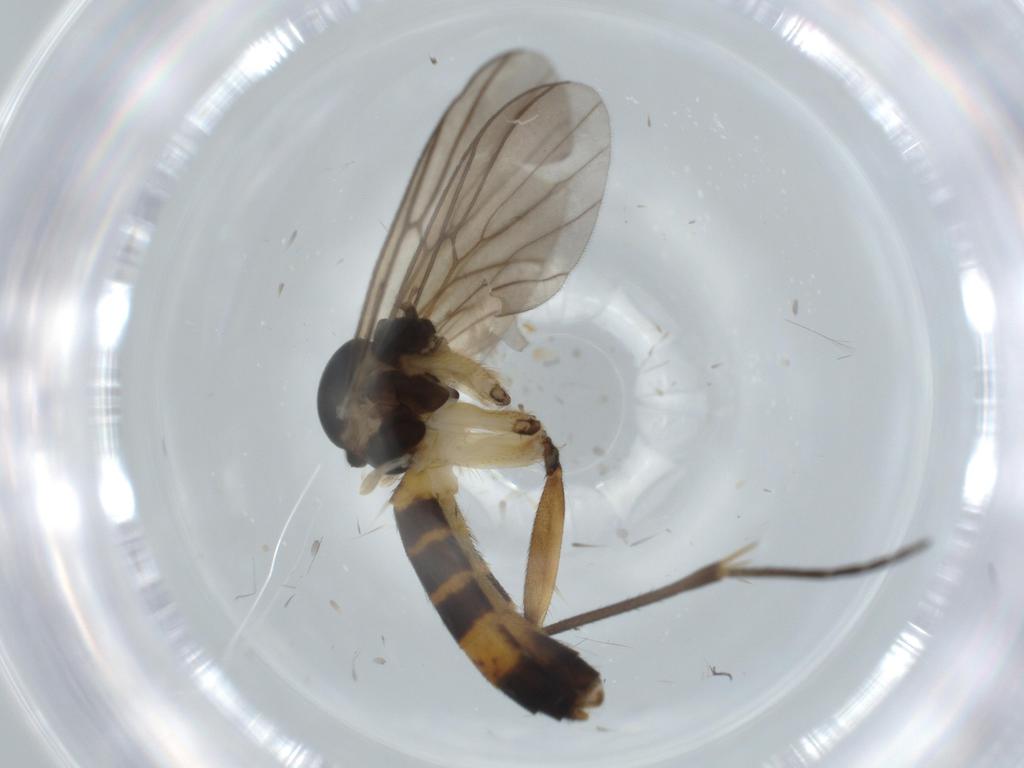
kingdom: Animalia
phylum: Arthropoda
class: Insecta
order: Diptera
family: Mycetophilidae
